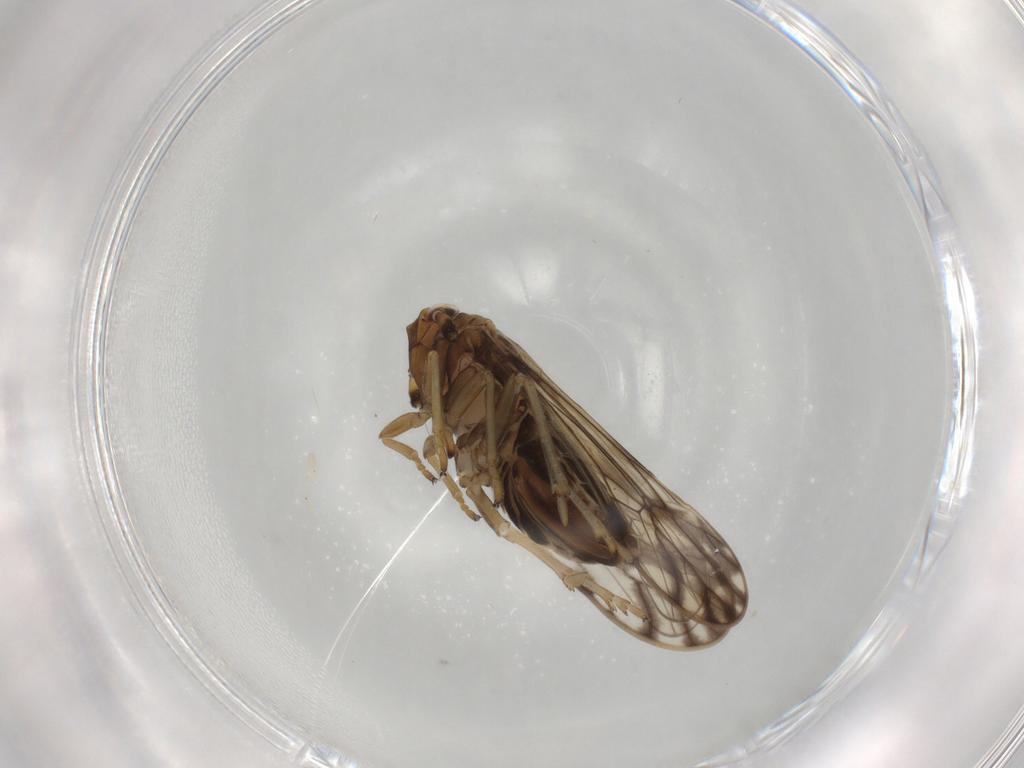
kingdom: Animalia
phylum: Arthropoda
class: Insecta
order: Hemiptera
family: Delphacidae
